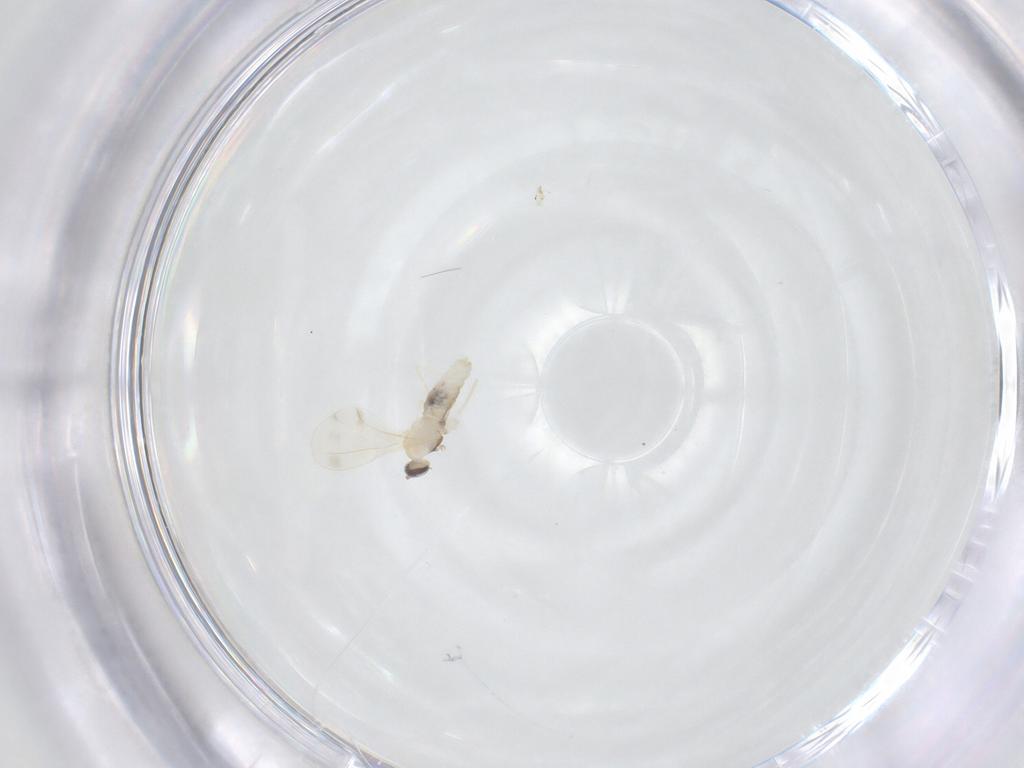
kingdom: Animalia
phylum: Arthropoda
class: Insecta
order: Diptera
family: Cecidomyiidae
